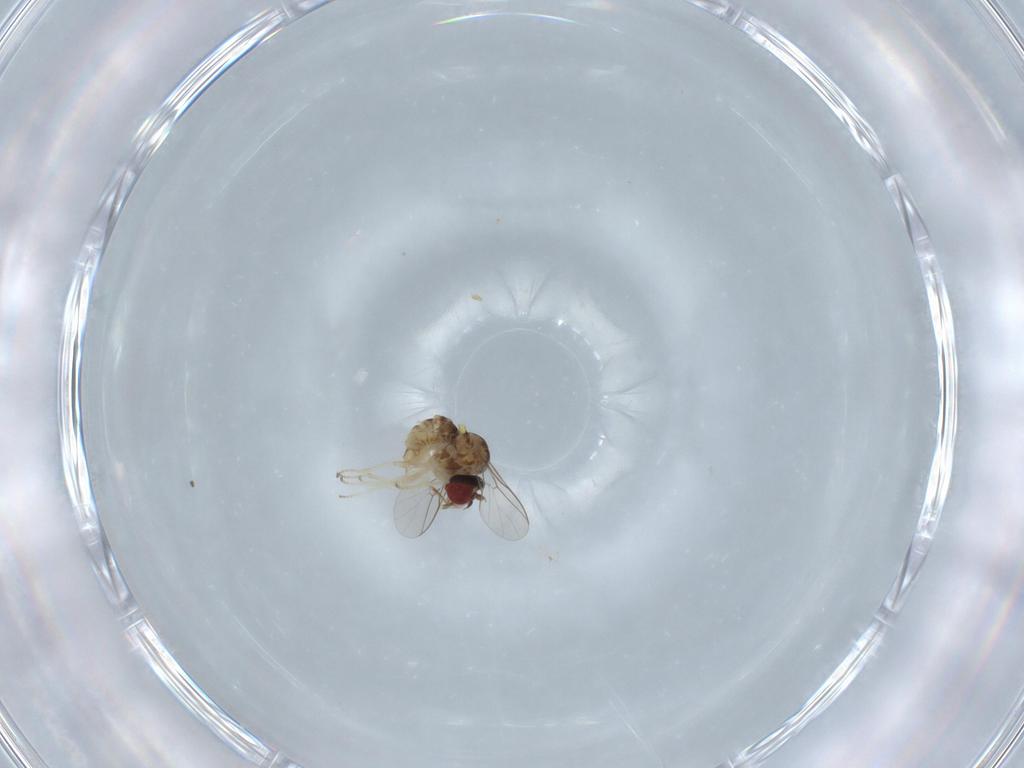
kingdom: Animalia
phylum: Arthropoda
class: Insecta
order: Diptera
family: Bombyliidae
